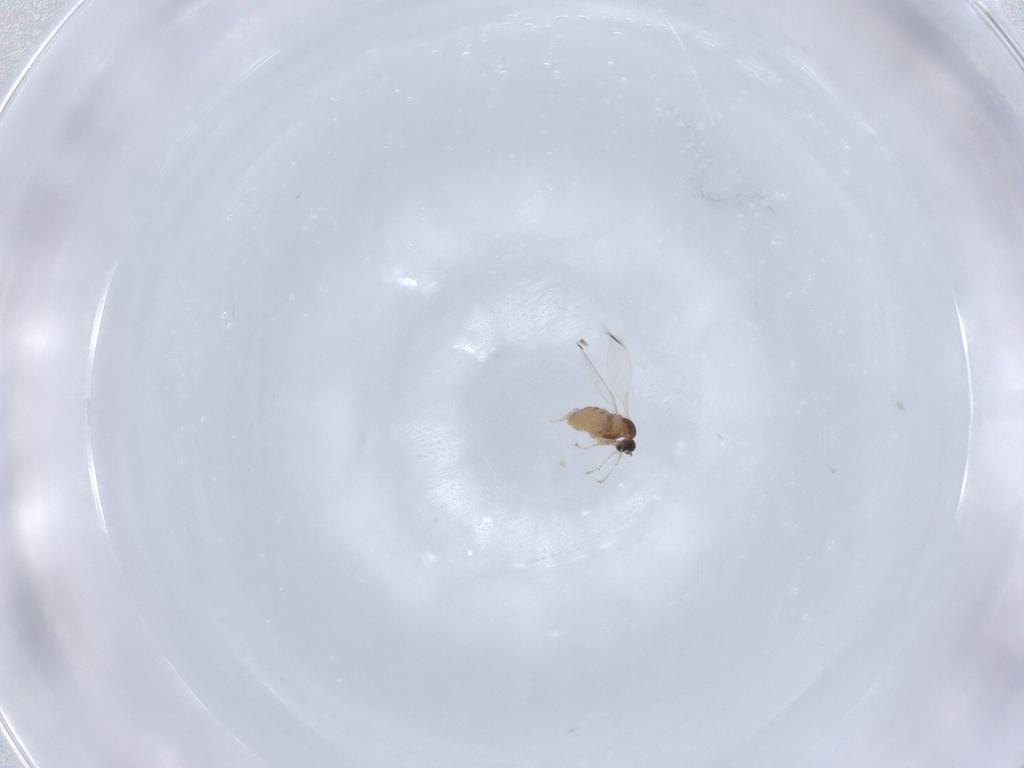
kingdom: Animalia
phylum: Arthropoda
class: Insecta
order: Diptera
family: Cecidomyiidae
